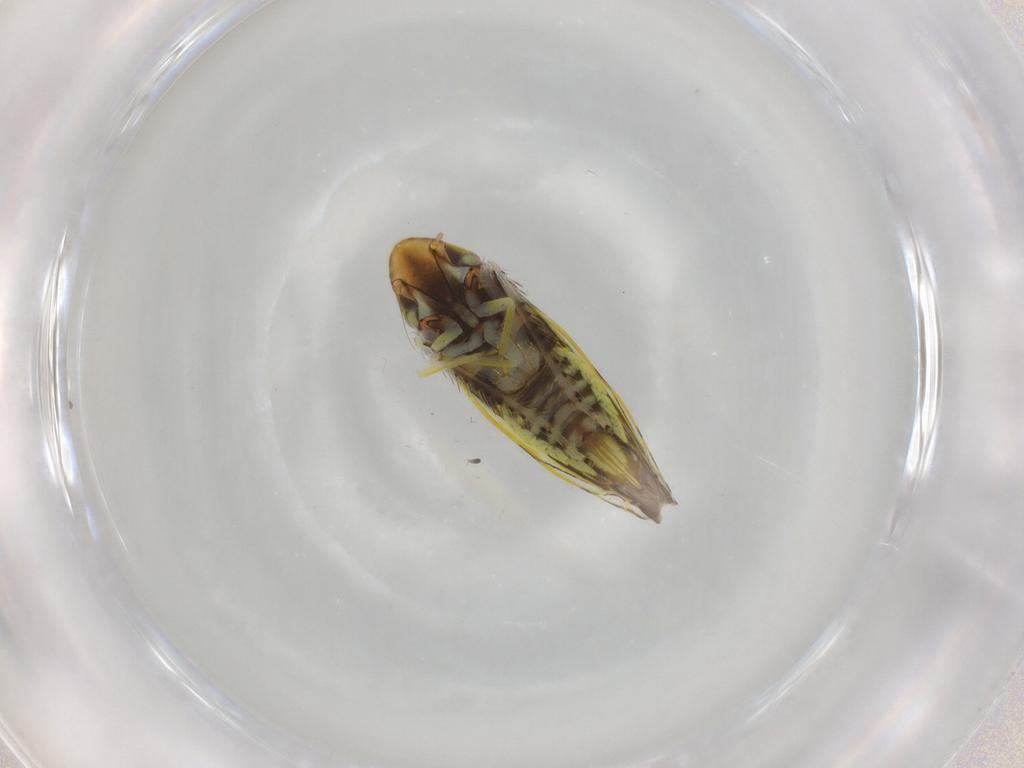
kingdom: Animalia
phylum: Arthropoda
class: Insecta
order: Hemiptera
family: Cicadellidae
